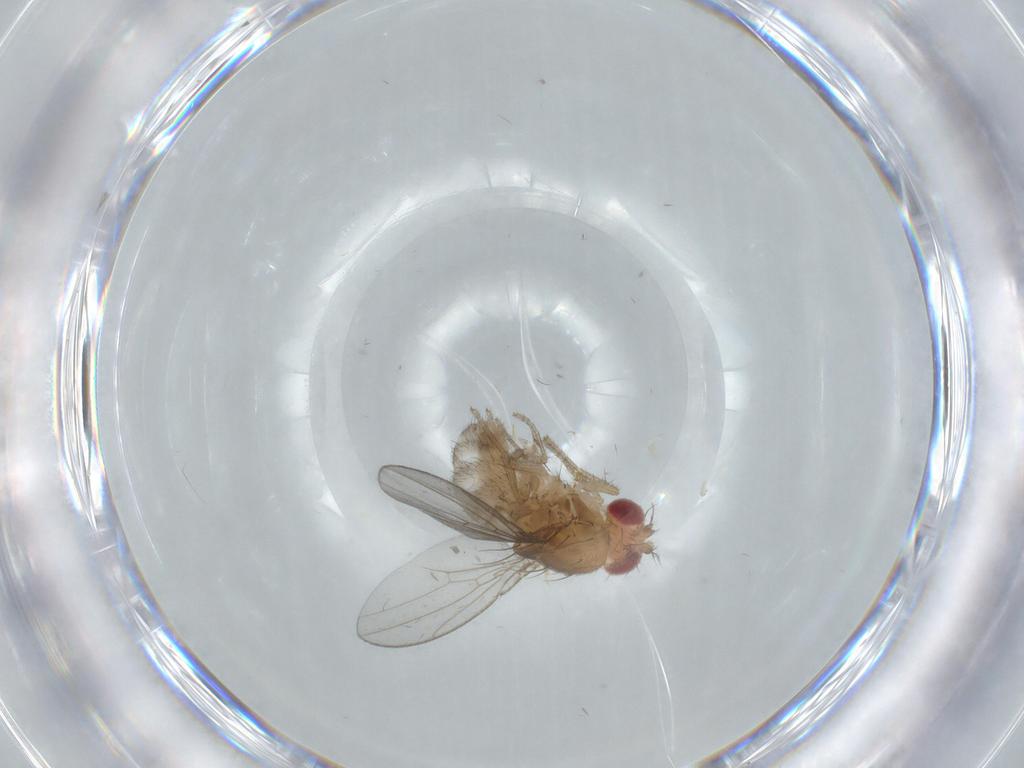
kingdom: Animalia
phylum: Arthropoda
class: Insecta
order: Diptera
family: Drosophilidae
